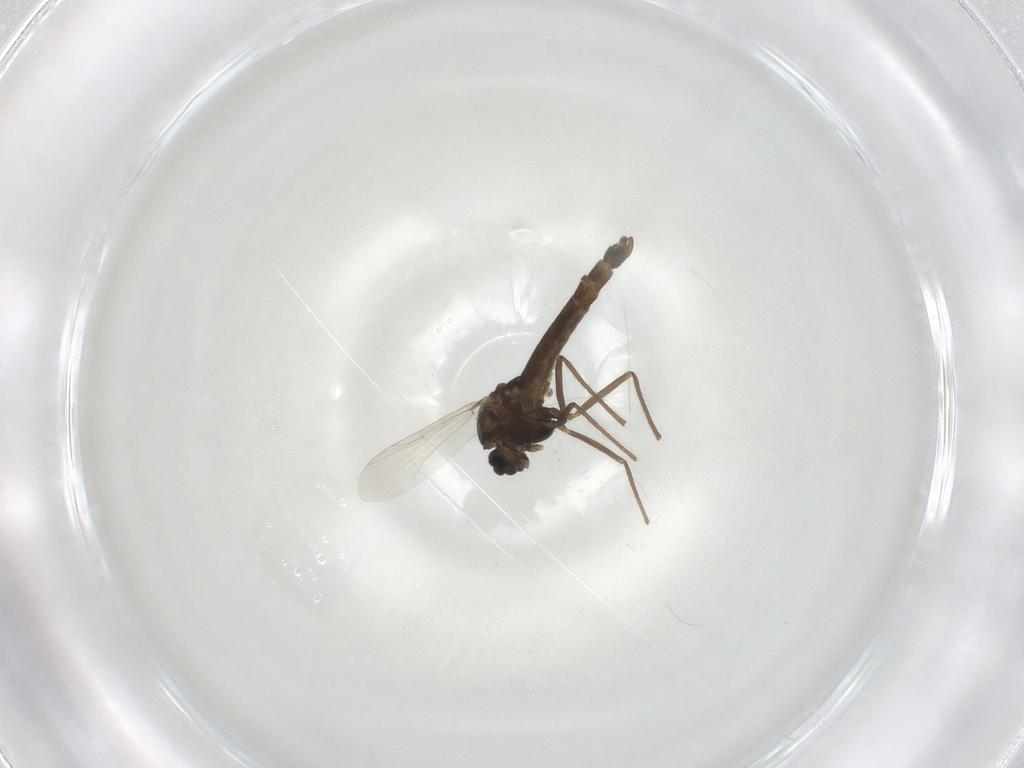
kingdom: Animalia
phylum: Arthropoda
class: Insecta
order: Diptera
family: Chironomidae
